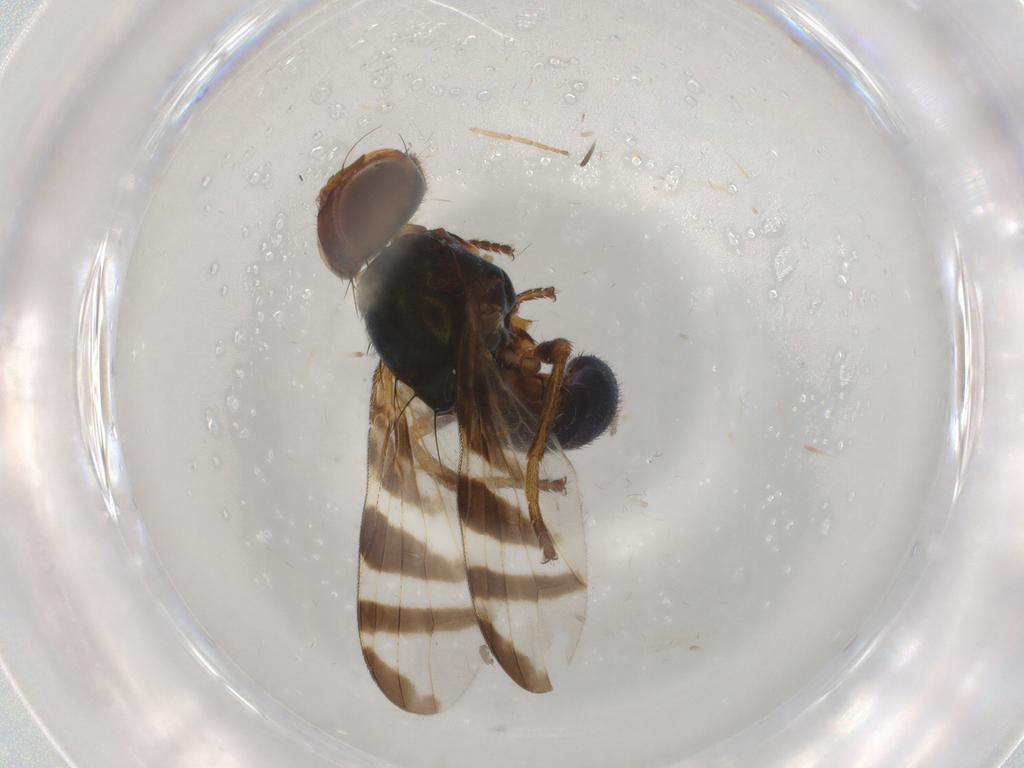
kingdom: Animalia
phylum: Arthropoda
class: Insecta
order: Diptera
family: Platystomatidae
